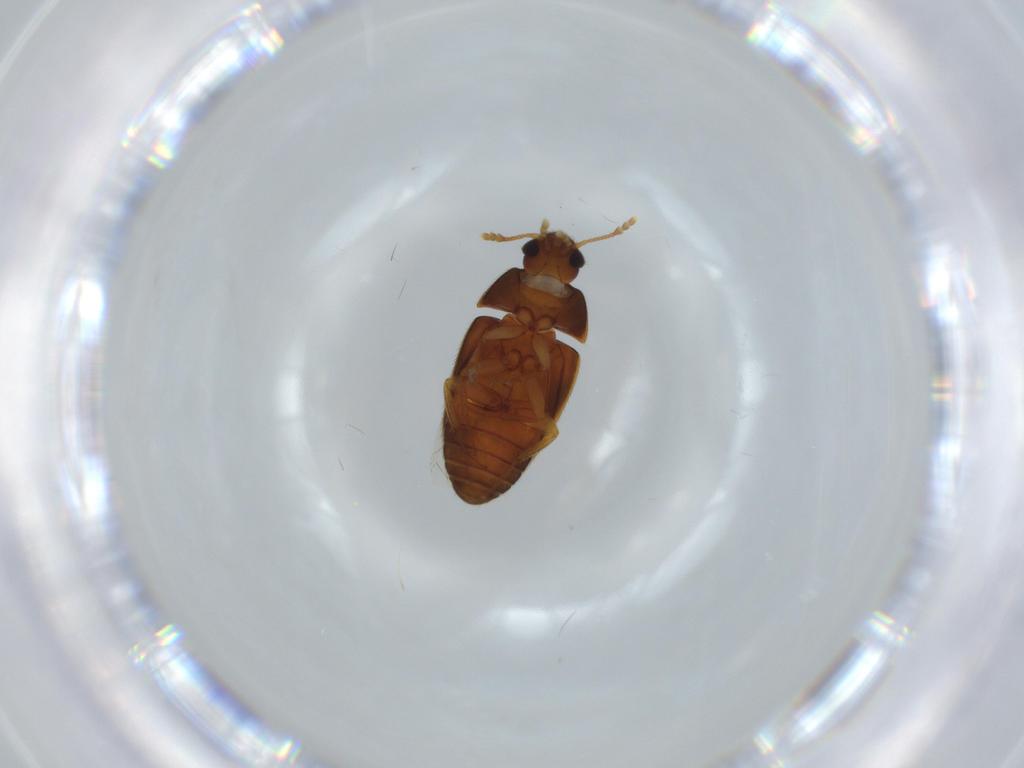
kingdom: Animalia
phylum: Arthropoda
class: Insecta
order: Coleoptera
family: Mycetophagidae
